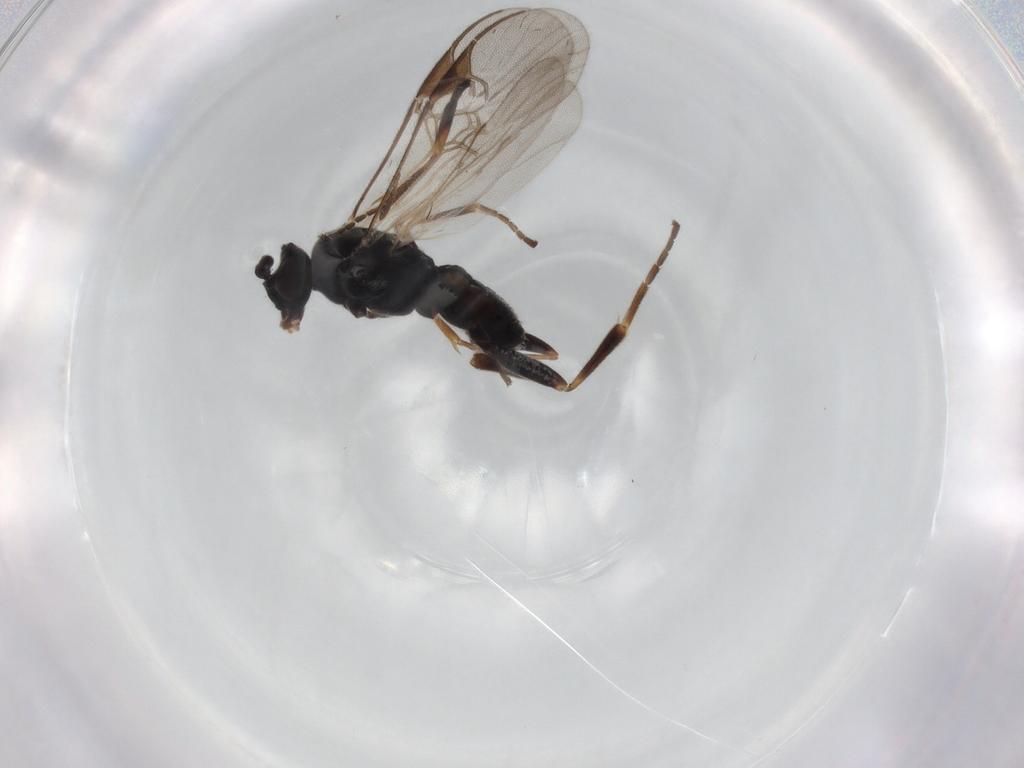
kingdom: Animalia
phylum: Arthropoda
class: Insecta
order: Hymenoptera
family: Braconidae
